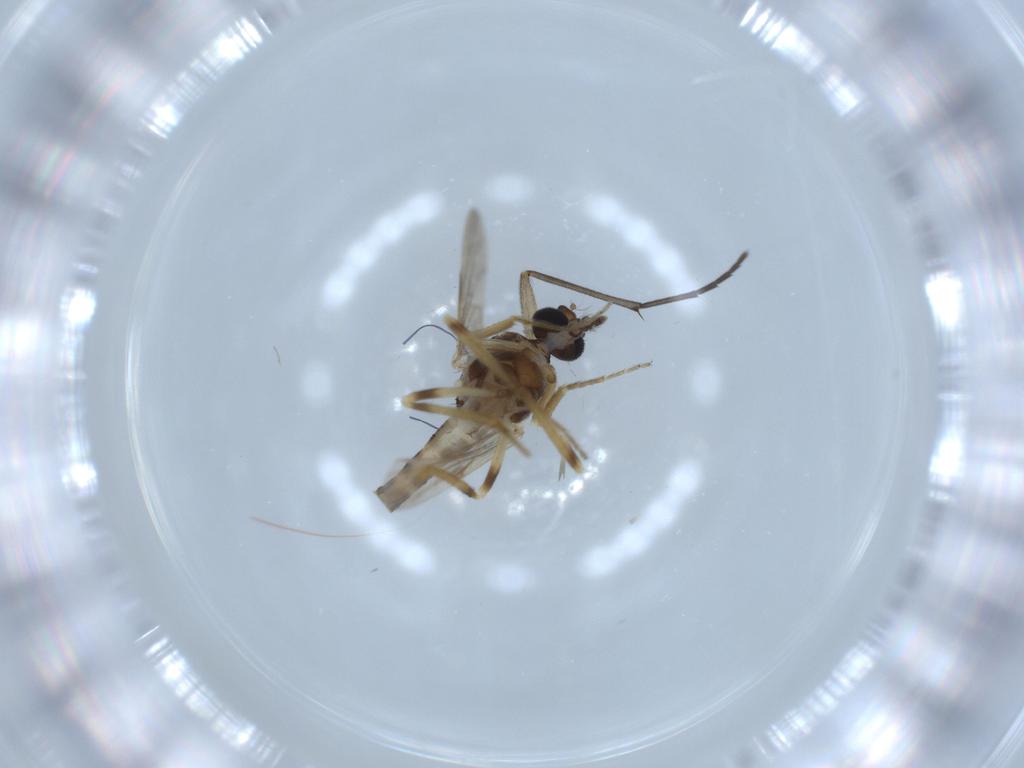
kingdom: Animalia
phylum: Arthropoda
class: Insecta
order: Diptera
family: Ceratopogonidae
